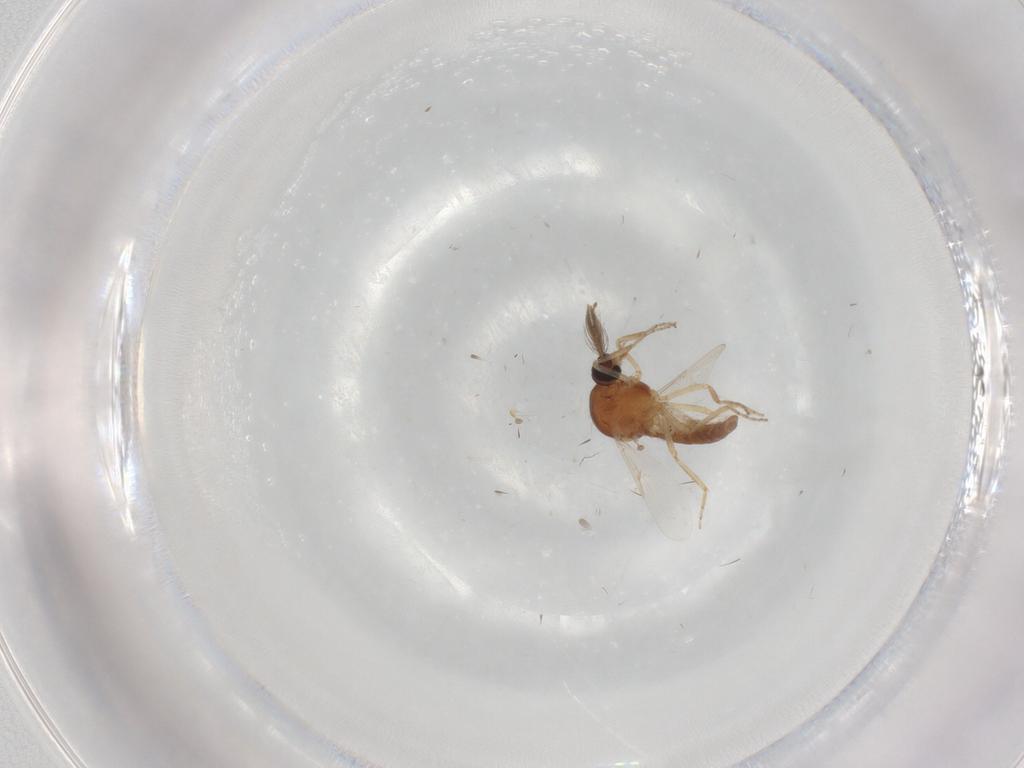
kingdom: Animalia
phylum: Arthropoda
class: Insecta
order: Diptera
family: Ceratopogonidae
